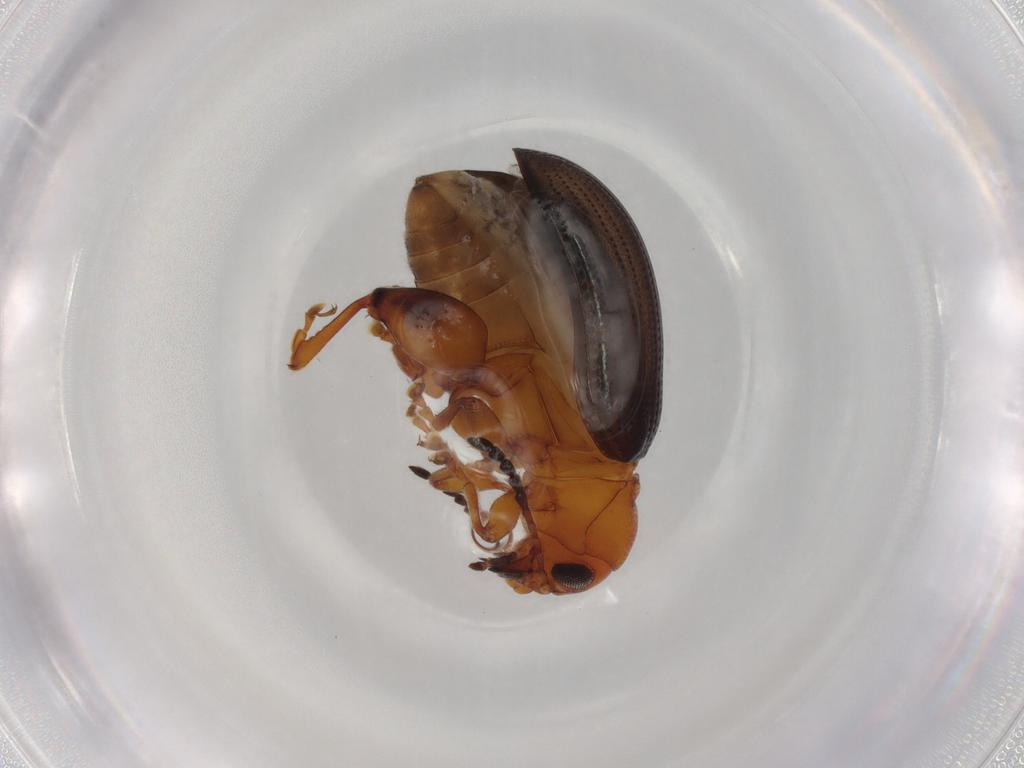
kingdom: Animalia
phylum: Arthropoda
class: Insecta
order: Coleoptera
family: Chrysomelidae
